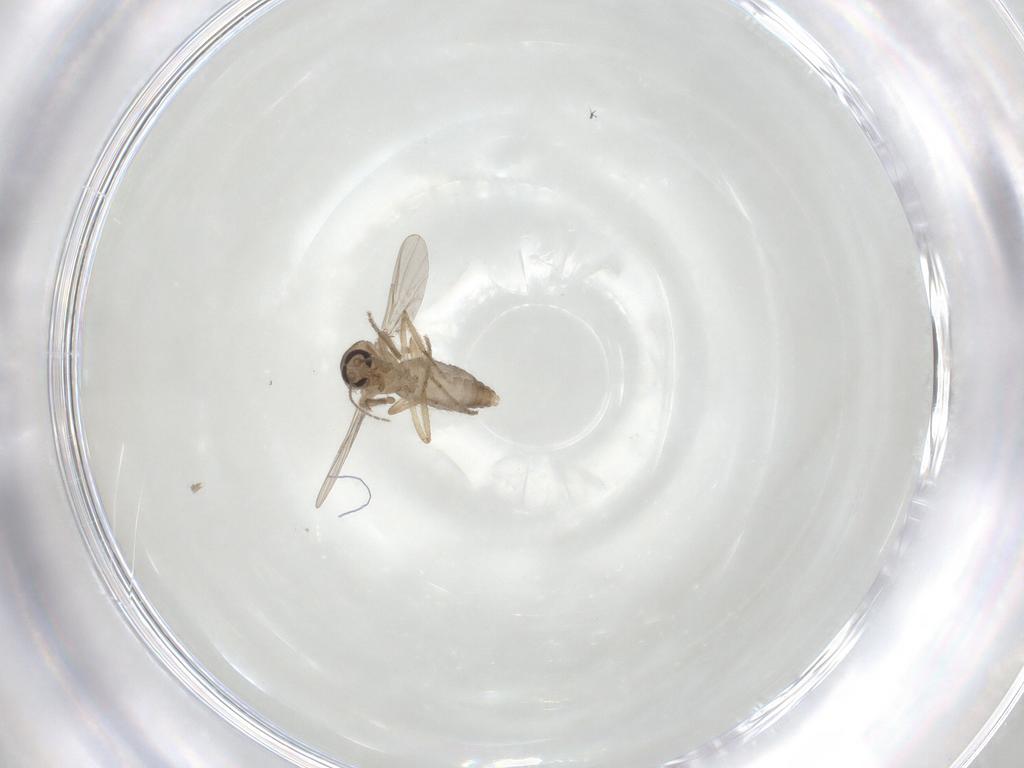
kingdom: Animalia
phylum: Arthropoda
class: Insecta
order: Diptera
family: Ceratopogonidae
